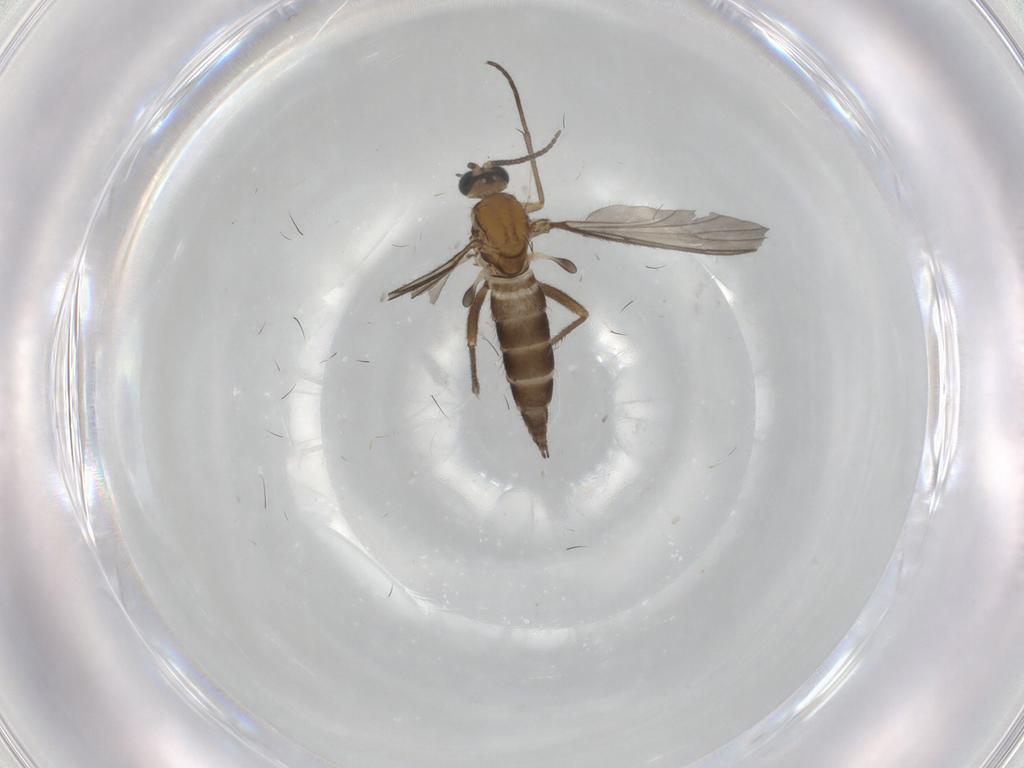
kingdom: Animalia
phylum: Arthropoda
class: Insecta
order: Diptera
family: Sciaridae
